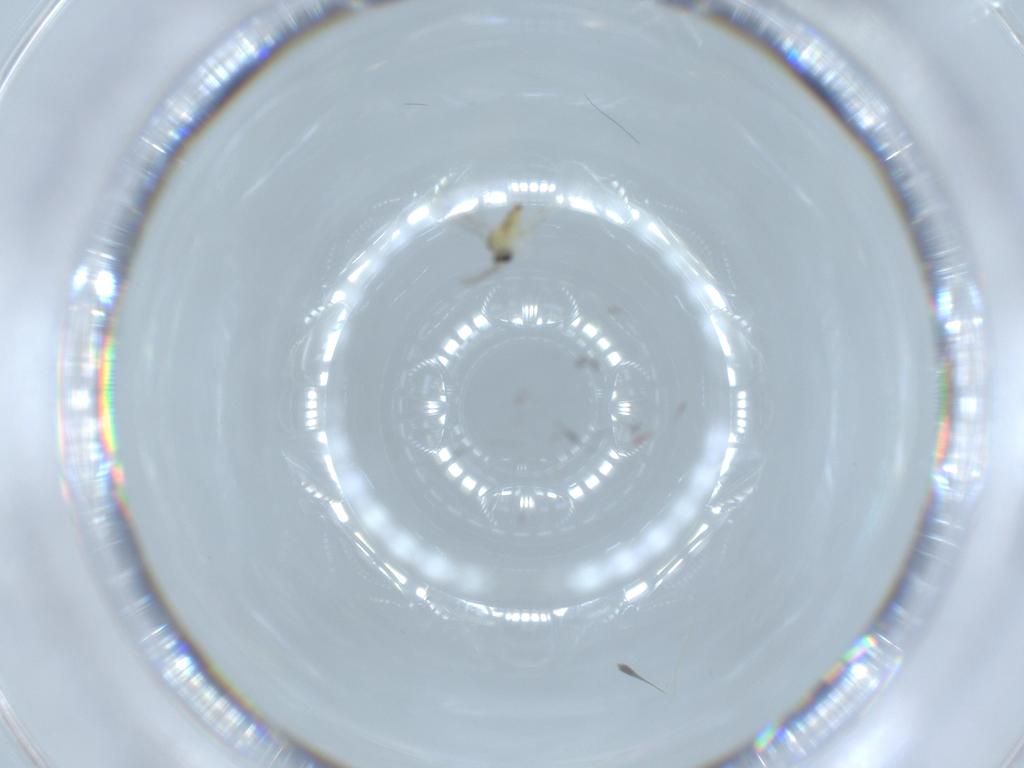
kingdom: Animalia
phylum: Arthropoda
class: Insecta
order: Diptera
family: Cecidomyiidae
